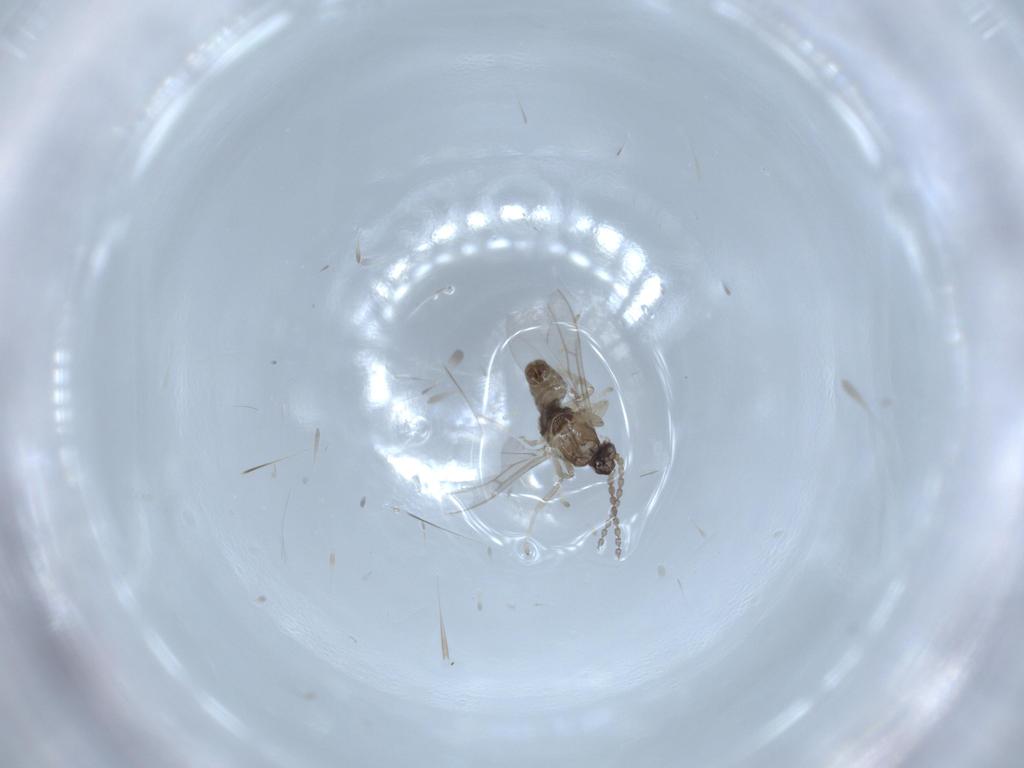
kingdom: Animalia
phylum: Arthropoda
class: Insecta
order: Diptera
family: Cecidomyiidae
